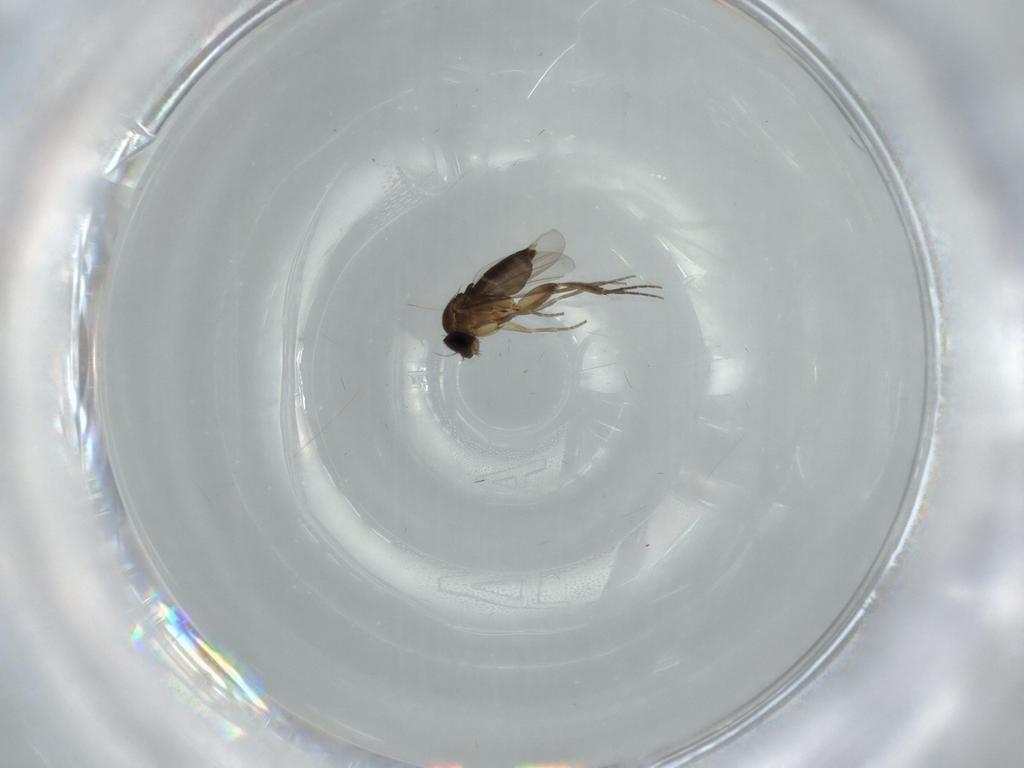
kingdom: Animalia
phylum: Arthropoda
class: Insecta
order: Diptera
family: Phoridae
